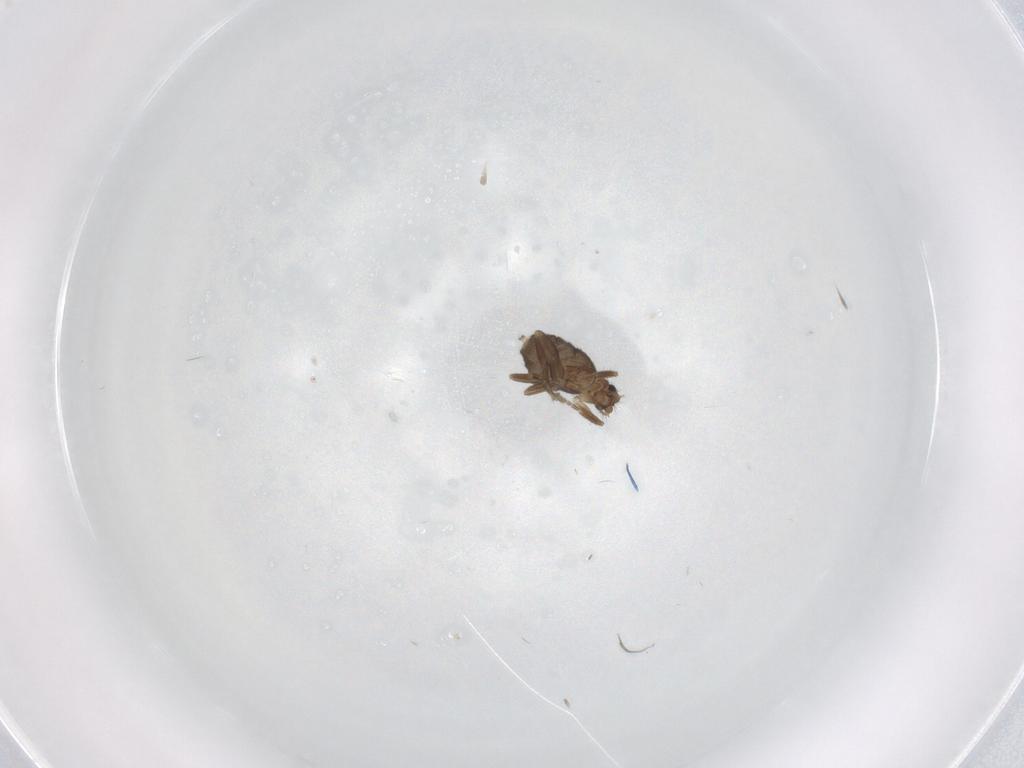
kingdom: Animalia
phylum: Arthropoda
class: Insecta
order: Diptera
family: Phoridae
